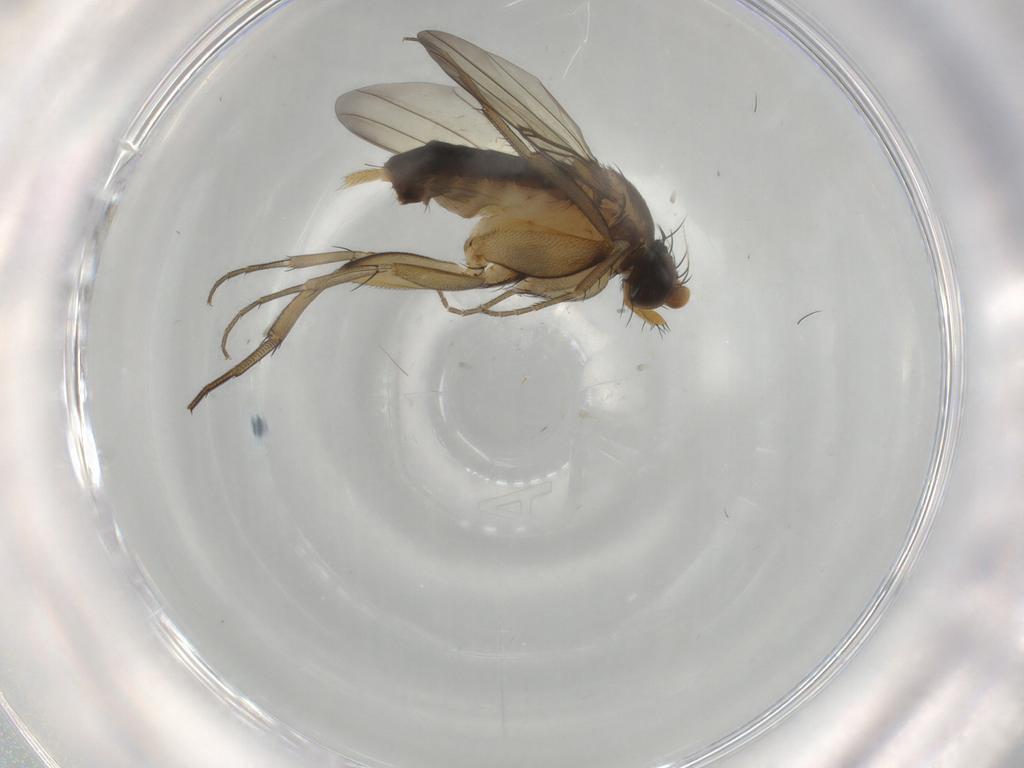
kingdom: Animalia
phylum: Arthropoda
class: Insecta
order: Diptera
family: Phoridae
